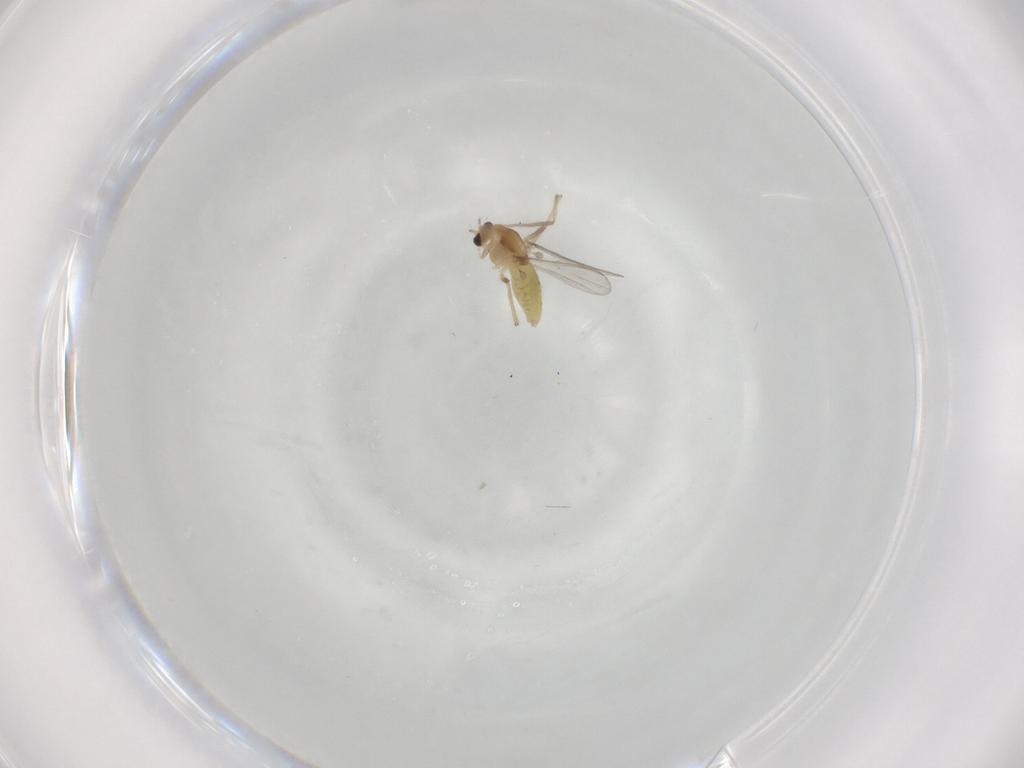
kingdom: Animalia
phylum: Arthropoda
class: Insecta
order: Diptera
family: Chironomidae
